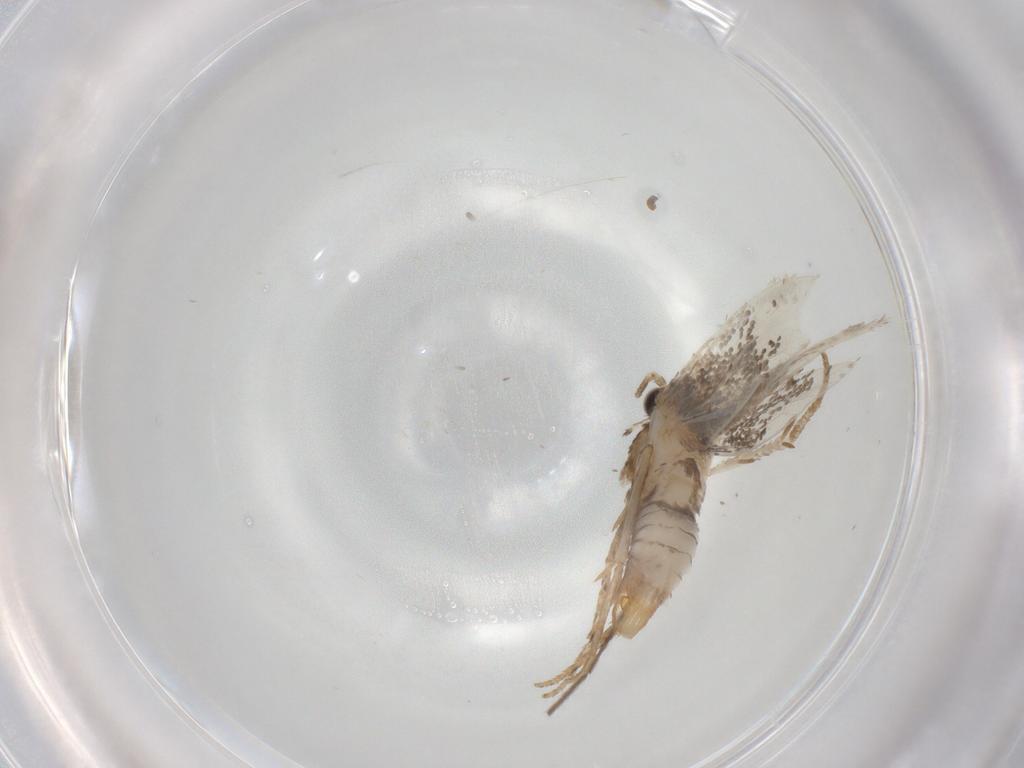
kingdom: Animalia
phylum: Arthropoda
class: Insecta
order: Lepidoptera
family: Tineidae
